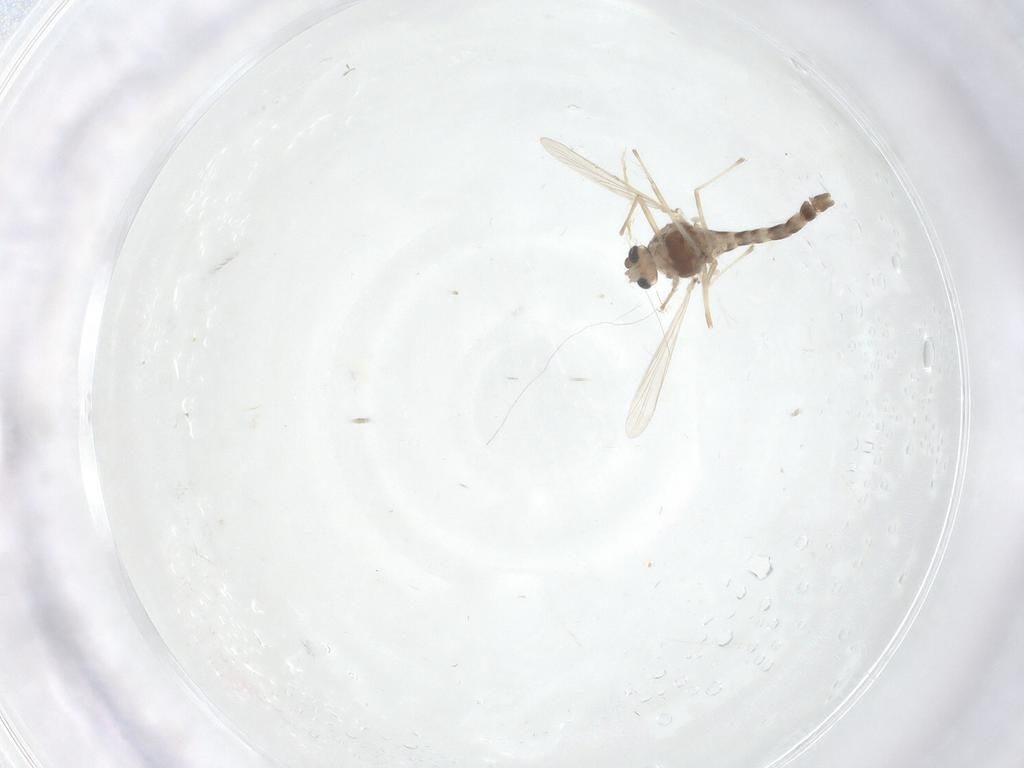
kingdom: Animalia
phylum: Arthropoda
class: Insecta
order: Diptera
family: Chironomidae
